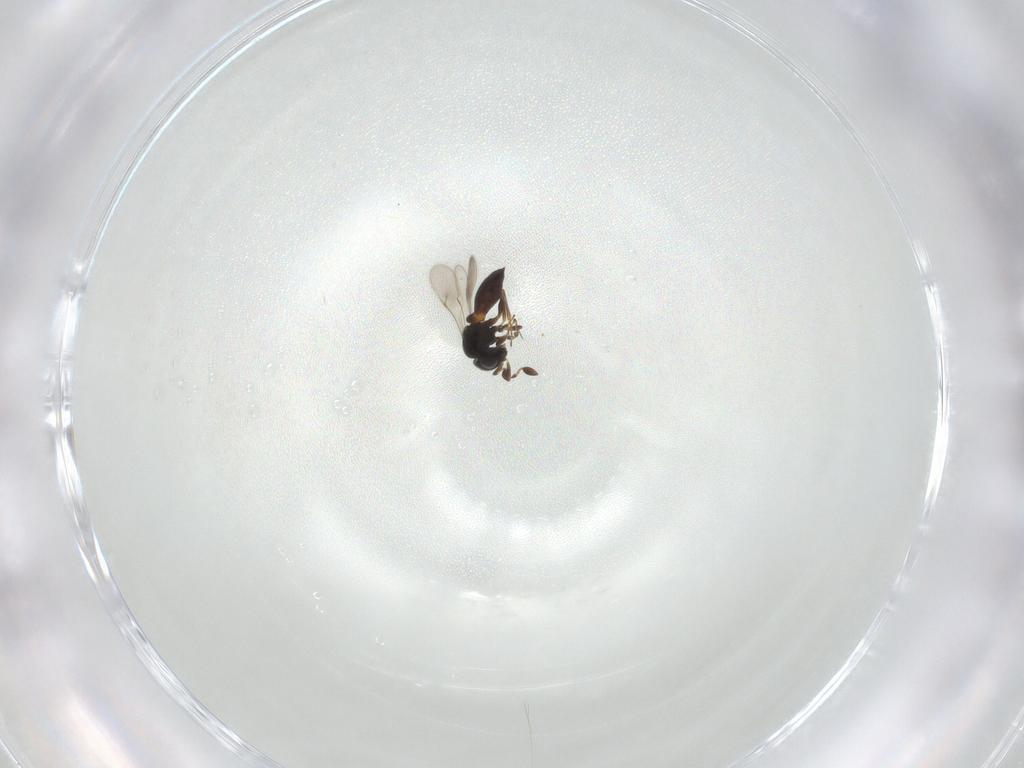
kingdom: Animalia
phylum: Arthropoda
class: Insecta
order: Hymenoptera
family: Scelionidae
